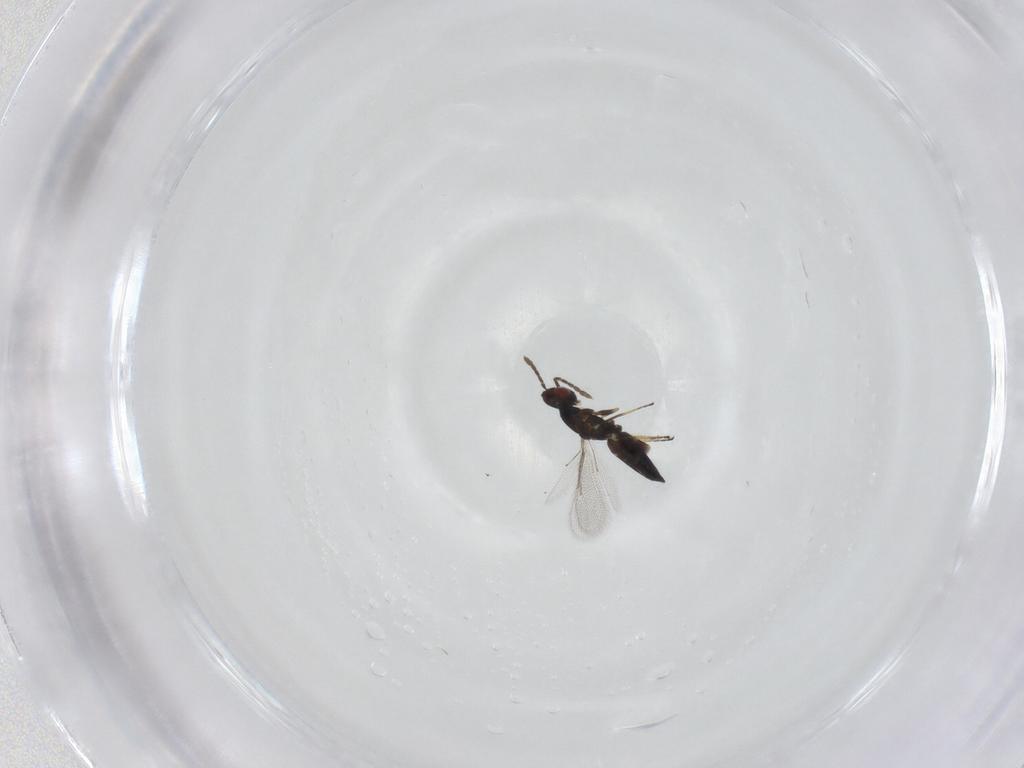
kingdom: Animalia
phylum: Arthropoda
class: Insecta
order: Hymenoptera
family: Eulophidae
